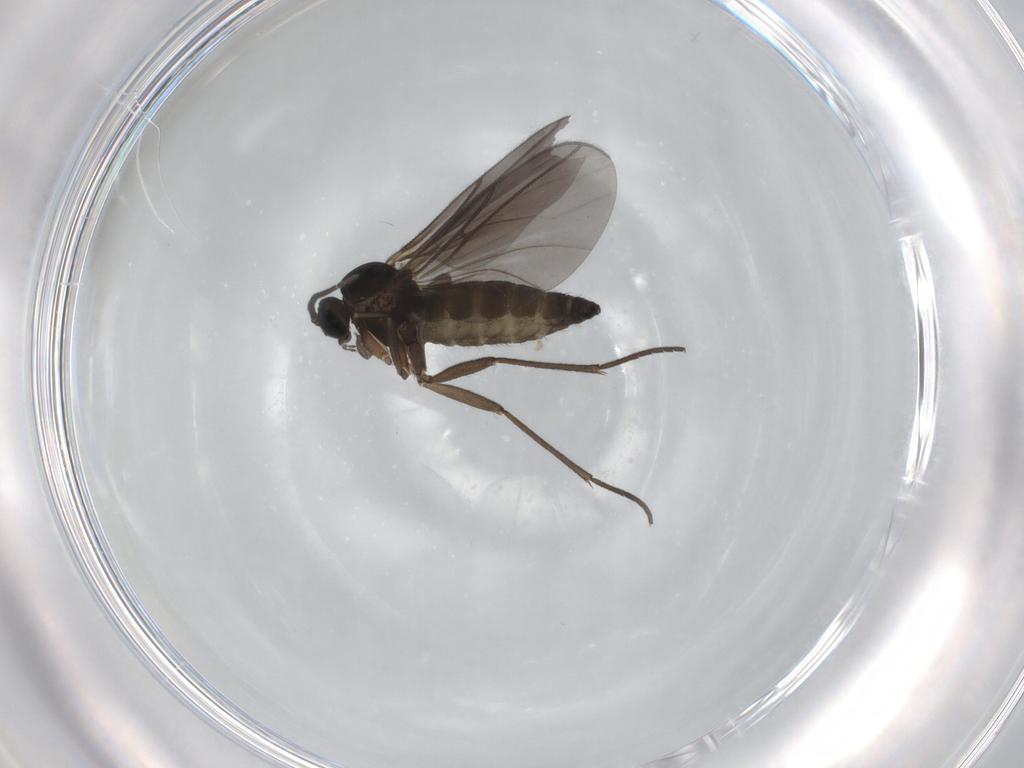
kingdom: Animalia
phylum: Arthropoda
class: Insecta
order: Diptera
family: Sciaridae
